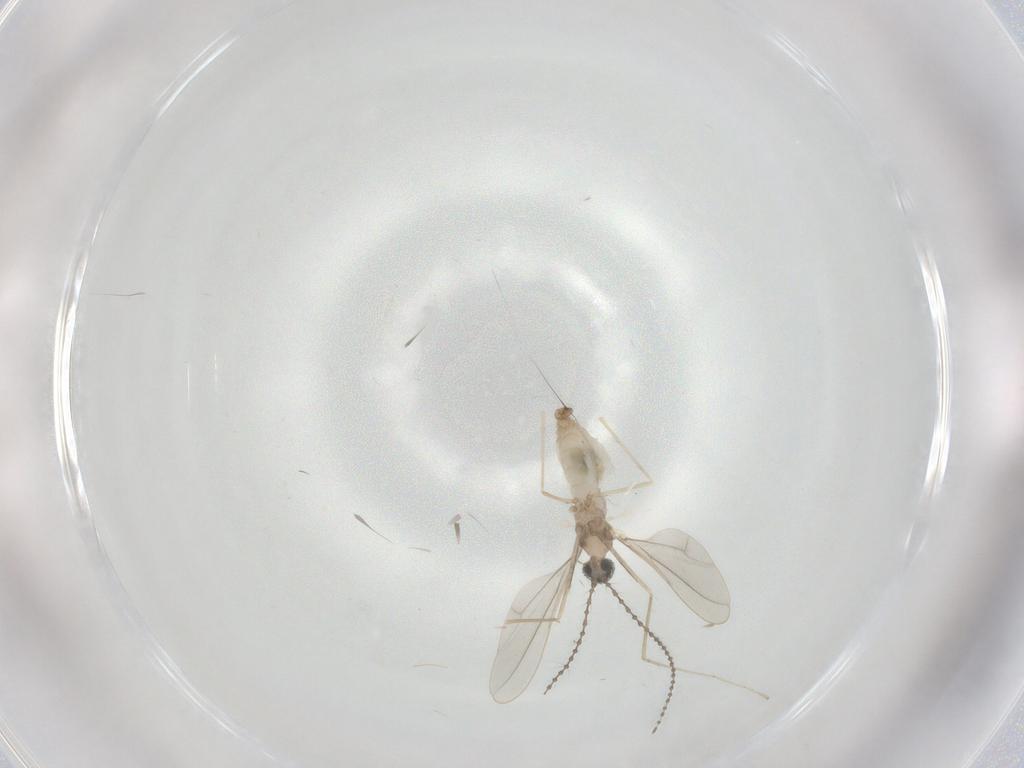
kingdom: Animalia
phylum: Arthropoda
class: Insecta
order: Diptera
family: Cecidomyiidae
